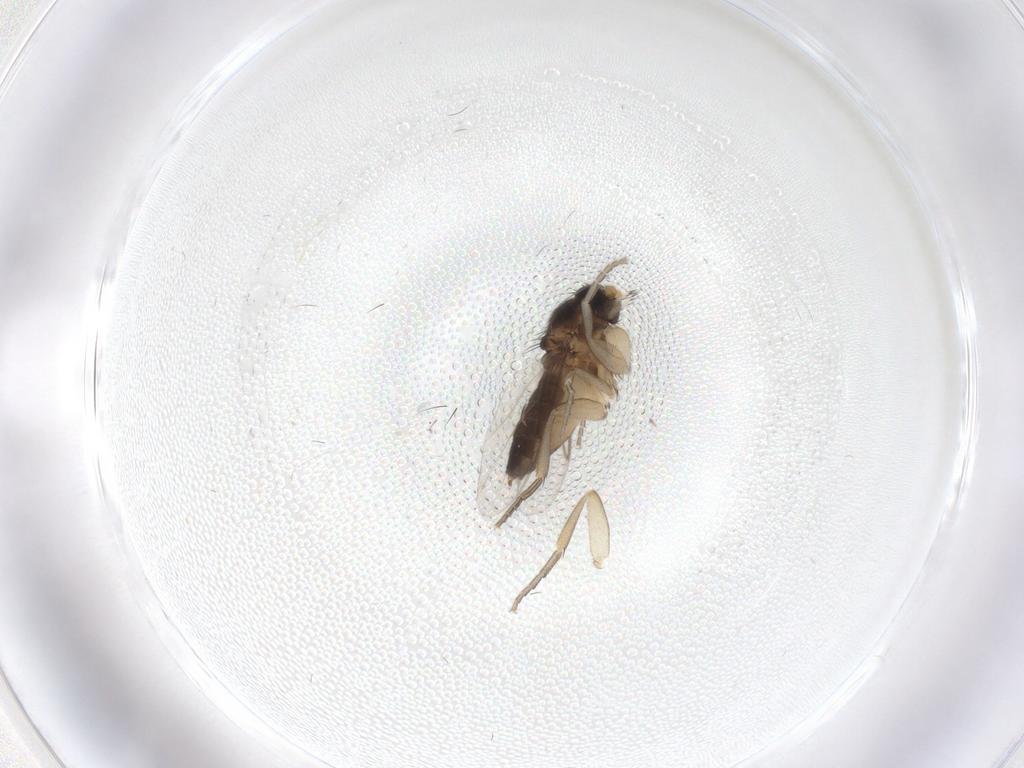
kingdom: Animalia
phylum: Arthropoda
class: Insecta
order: Diptera
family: Phoridae
